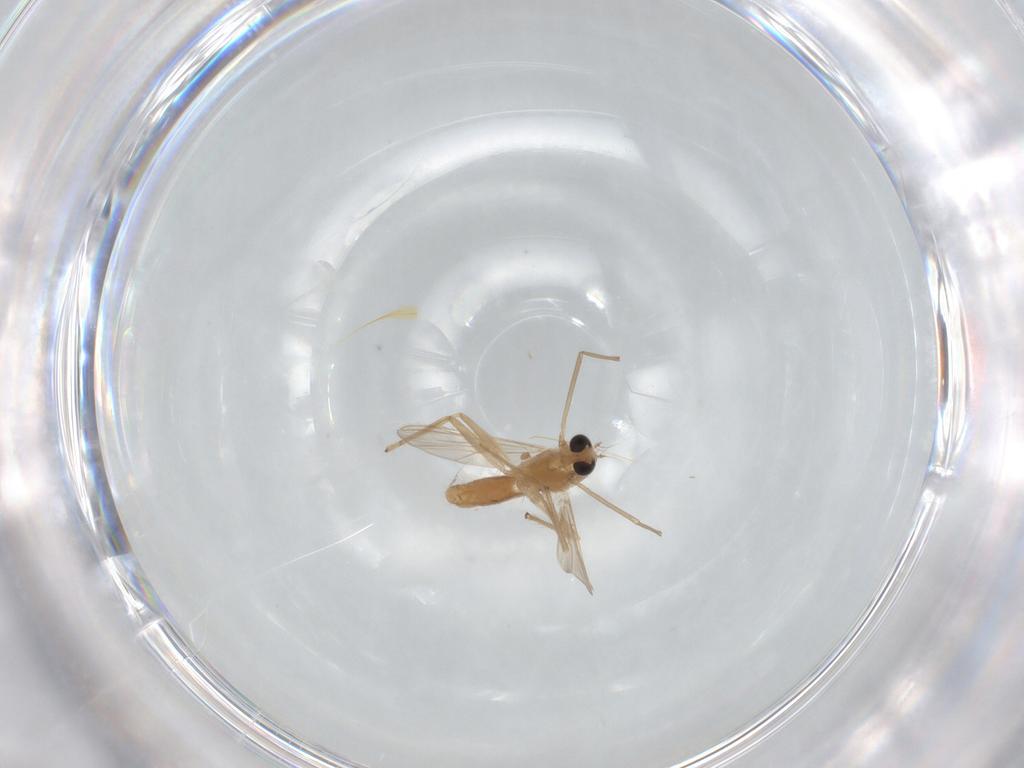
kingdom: Animalia
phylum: Arthropoda
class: Insecta
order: Diptera
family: Chironomidae
